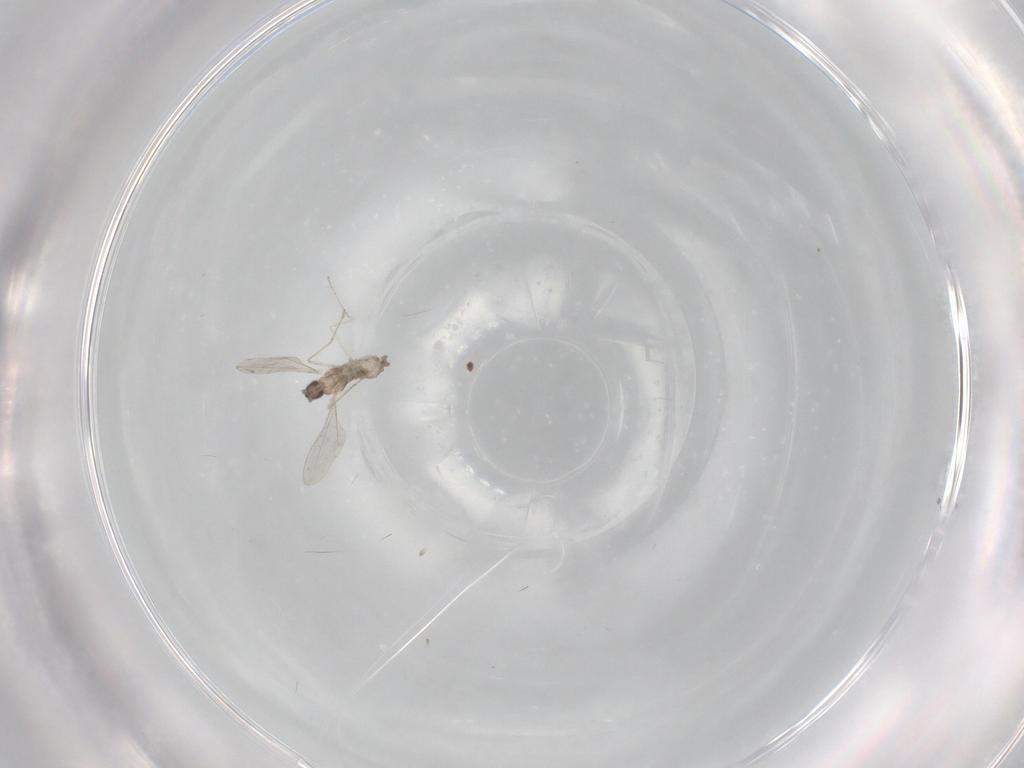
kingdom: Animalia
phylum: Arthropoda
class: Insecta
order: Diptera
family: Cecidomyiidae
